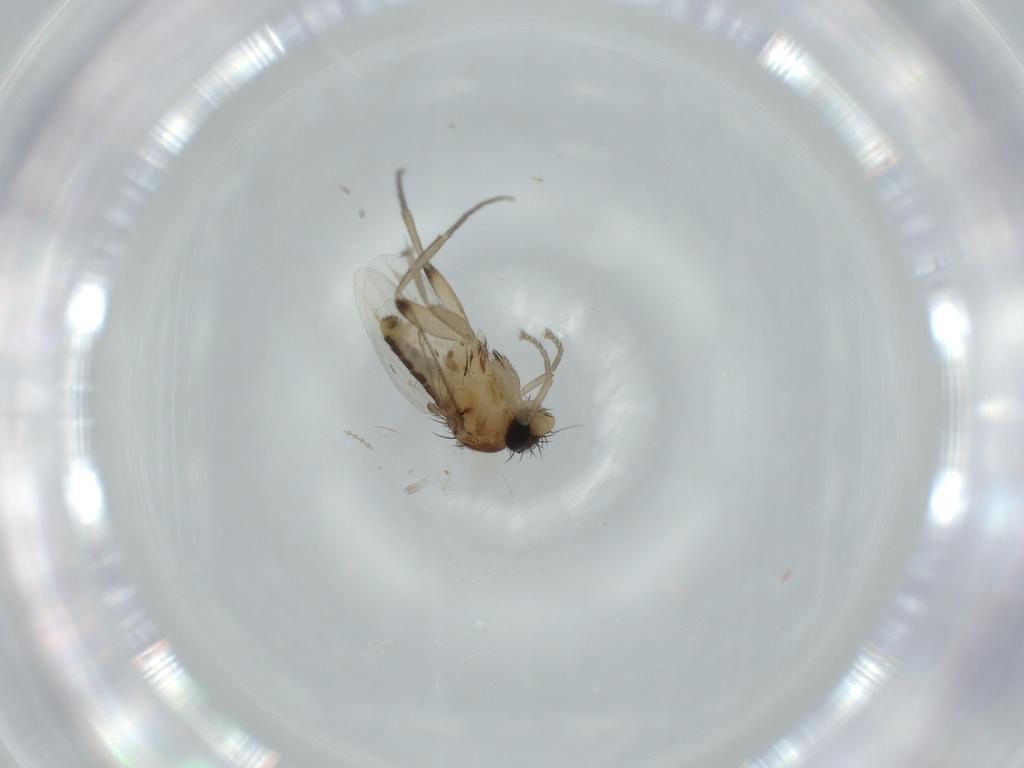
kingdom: Animalia
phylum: Arthropoda
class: Insecta
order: Diptera
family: Phoridae
